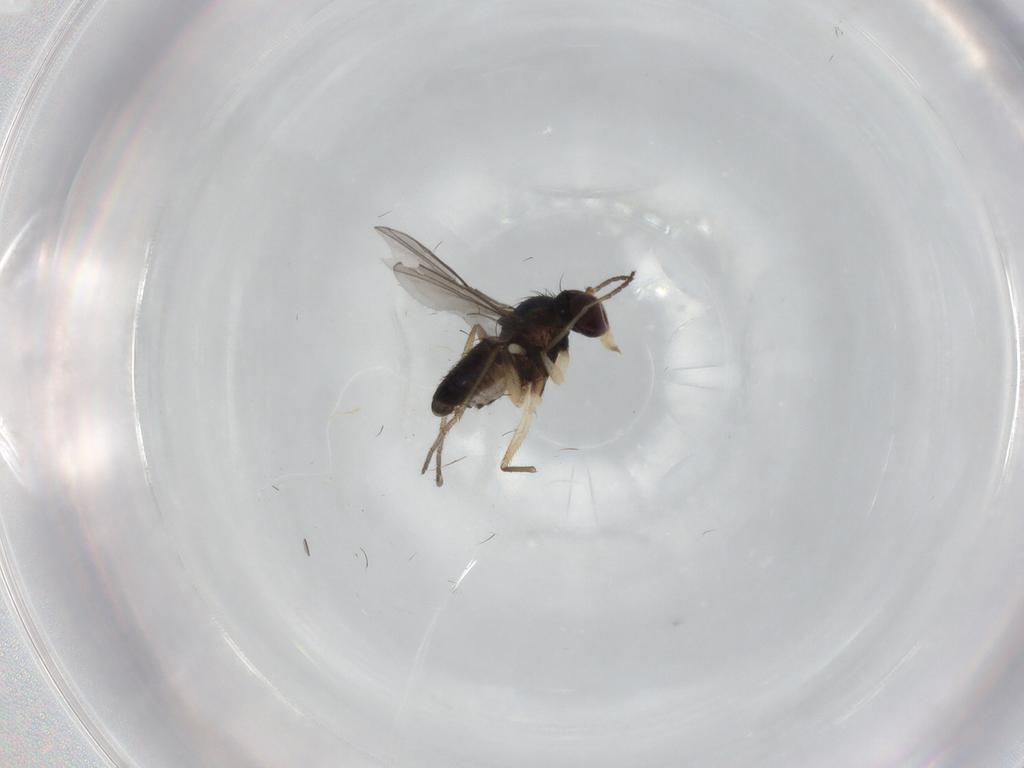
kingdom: Animalia
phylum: Arthropoda
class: Insecta
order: Diptera
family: Dolichopodidae
